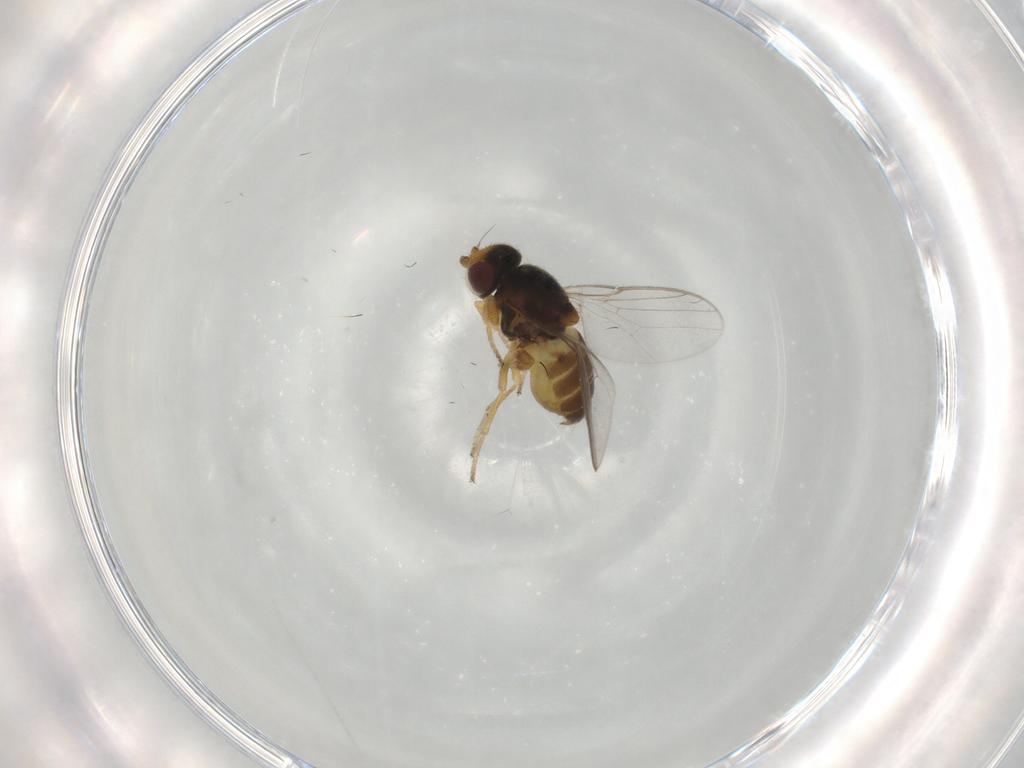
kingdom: Animalia
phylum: Arthropoda
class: Insecta
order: Diptera
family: Chloropidae
